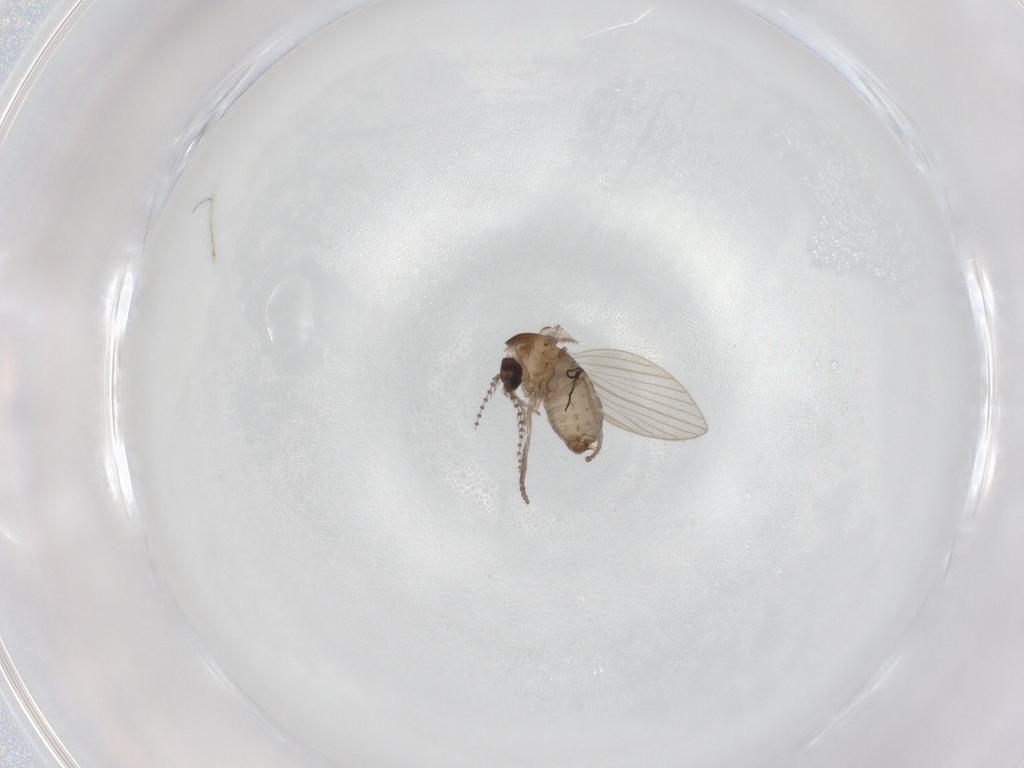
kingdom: Animalia
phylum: Arthropoda
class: Insecta
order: Diptera
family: Psychodidae
